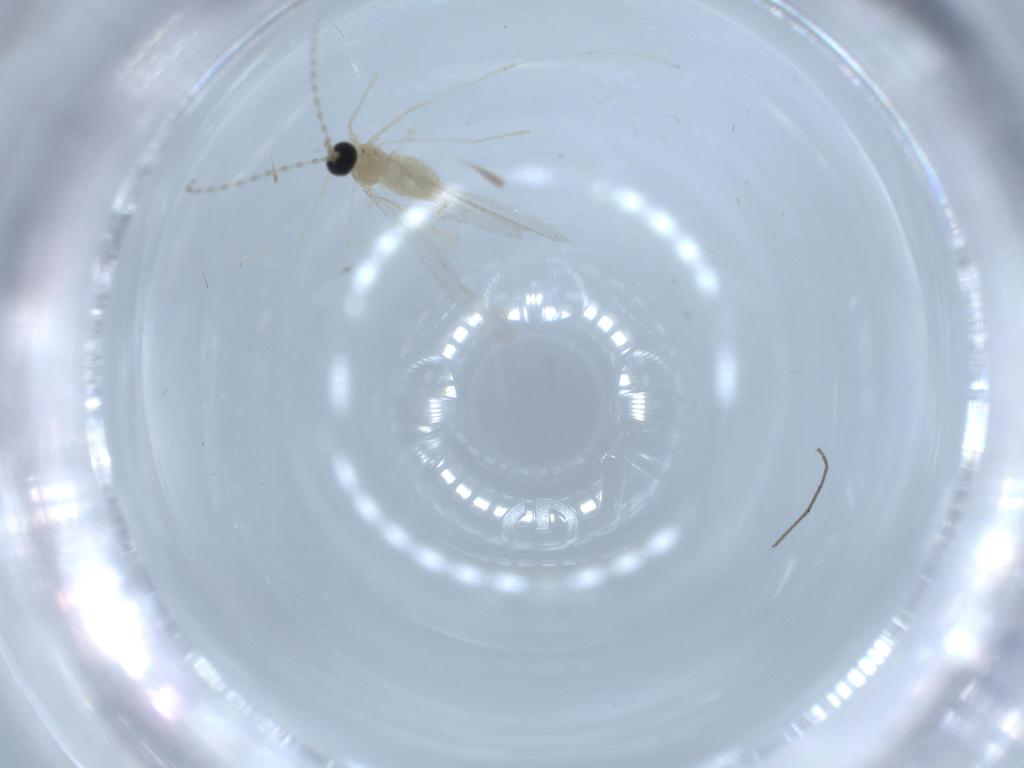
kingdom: Animalia
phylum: Arthropoda
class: Insecta
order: Diptera
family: Cecidomyiidae
